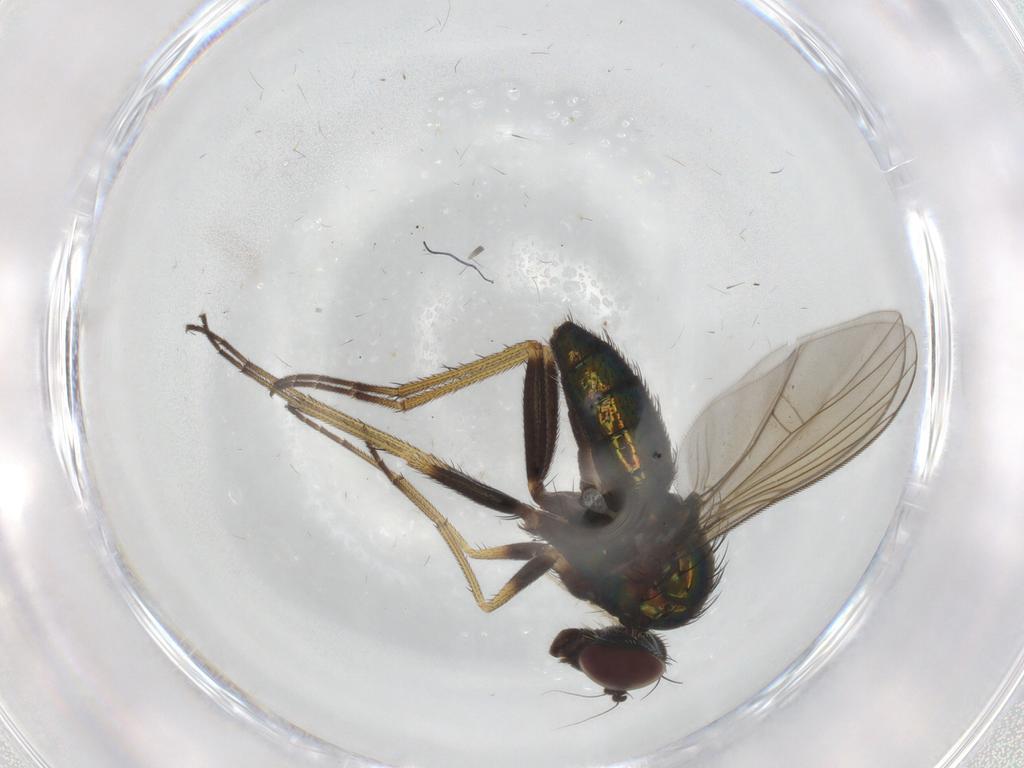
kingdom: Animalia
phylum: Arthropoda
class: Insecta
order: Diptera
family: Dolichopodidae
